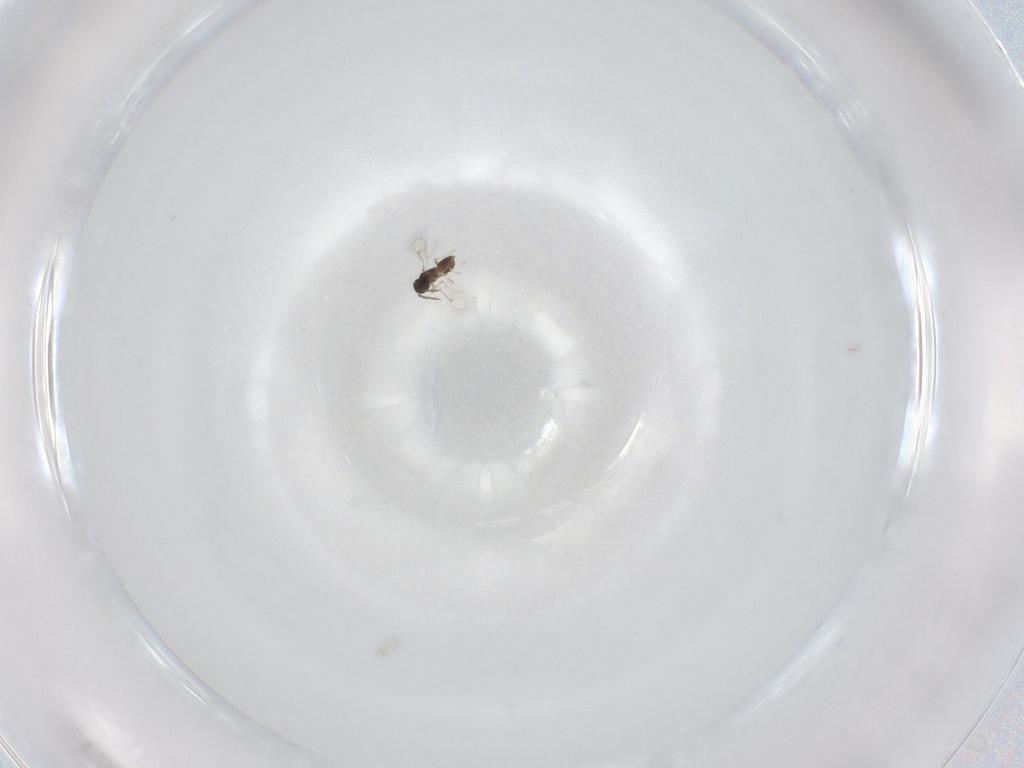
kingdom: Animalia
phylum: Arthropoda
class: Insecta
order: Hymenoptera
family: Eulophidae
